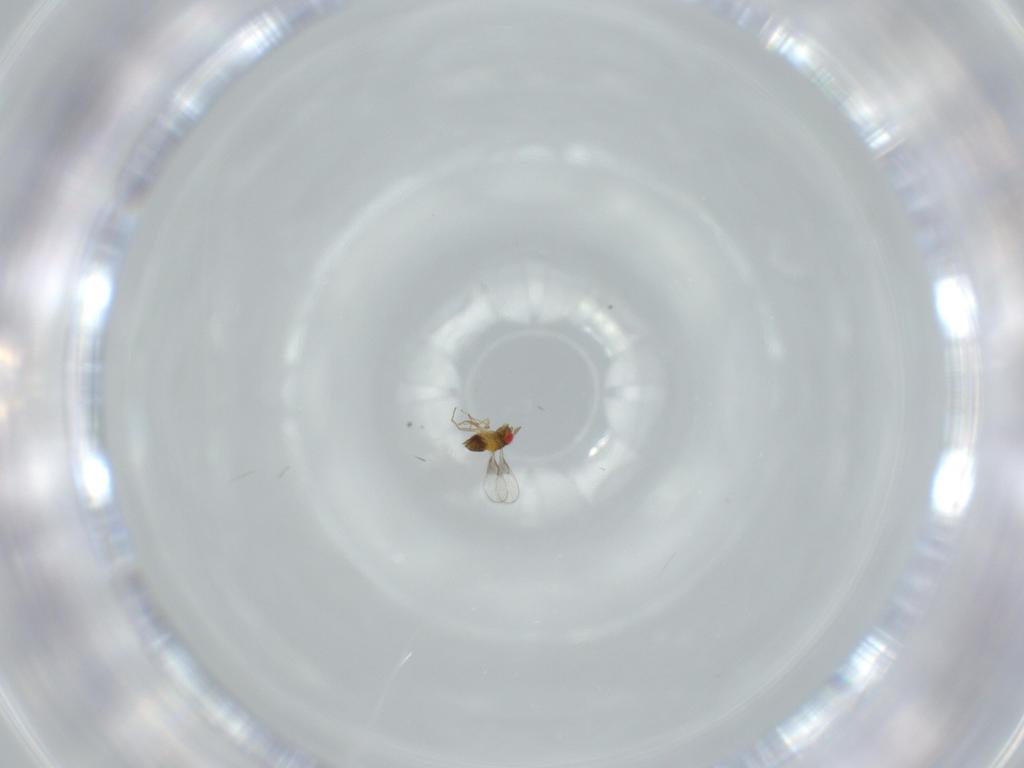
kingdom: Animalia
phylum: Arthropoda
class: Insecta
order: Hymenoptera
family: Trichogrammatidae
